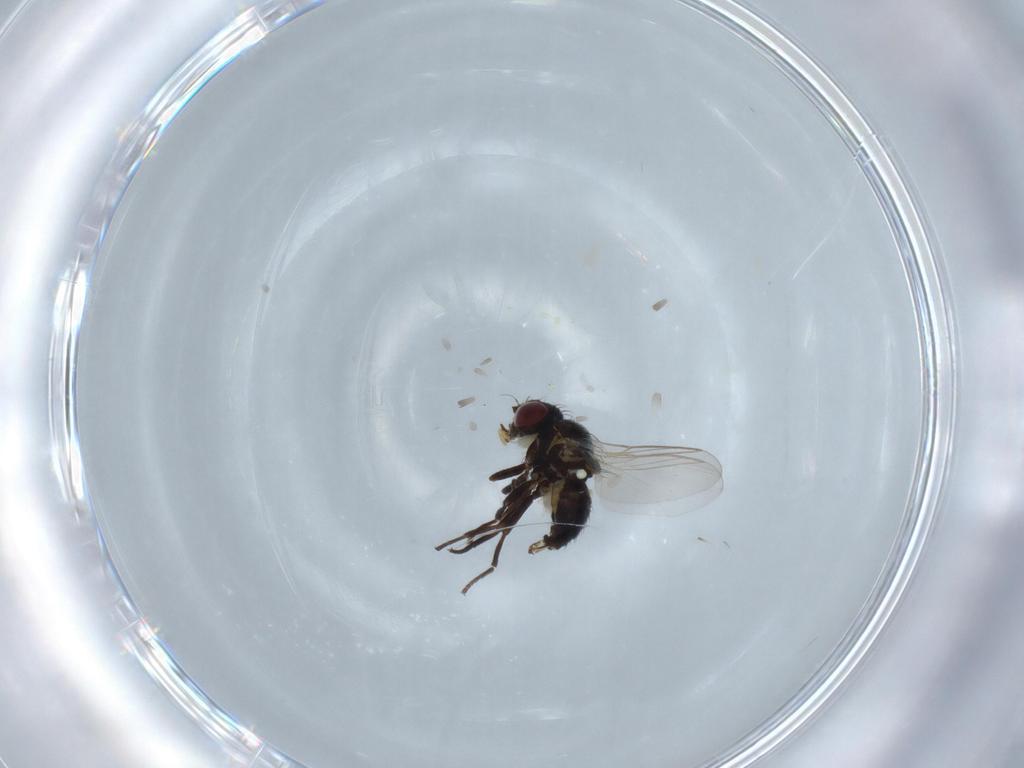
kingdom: Animalia
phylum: Arthropoda
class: Insecta
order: Diptera
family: Agromyzidae
